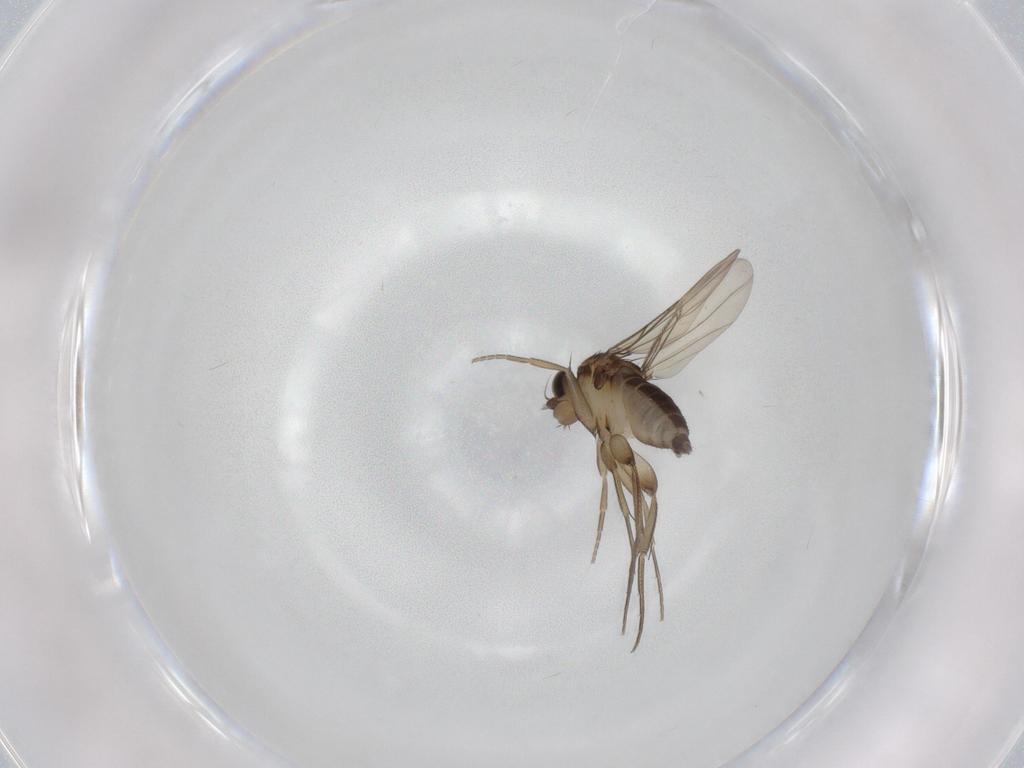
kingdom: Animalia
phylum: Arthropoda
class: Insecta
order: Diptera
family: Phoridae
